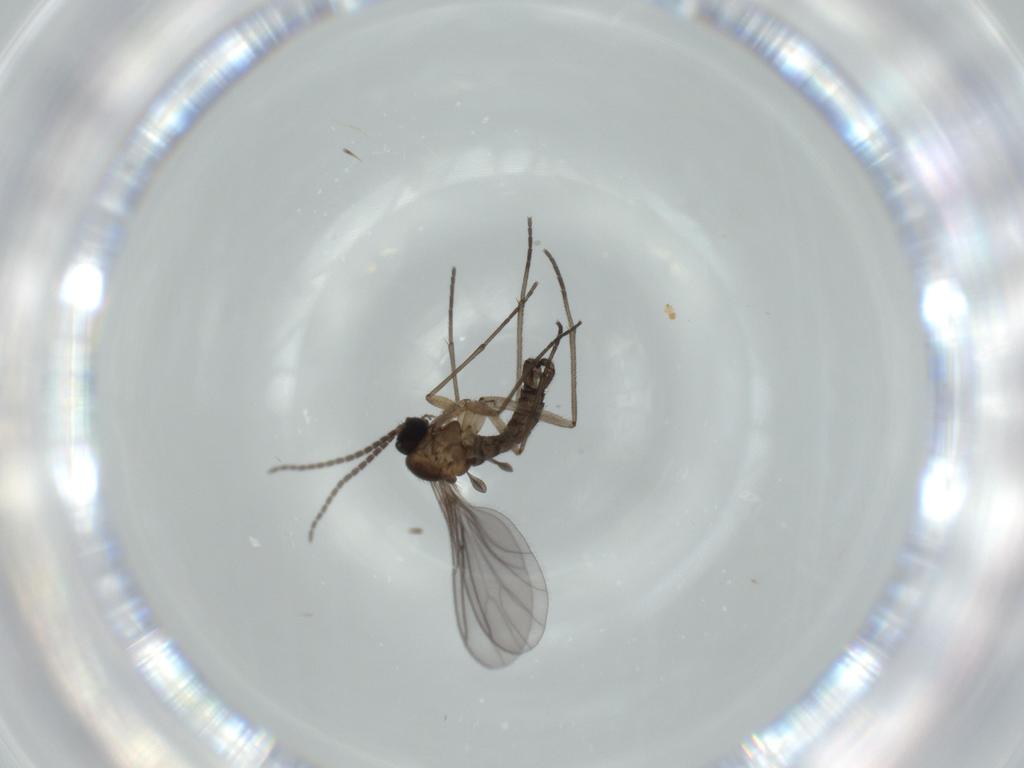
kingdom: Animalia
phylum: Arthropoda
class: Insecta
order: Diptera
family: Sciaridae
